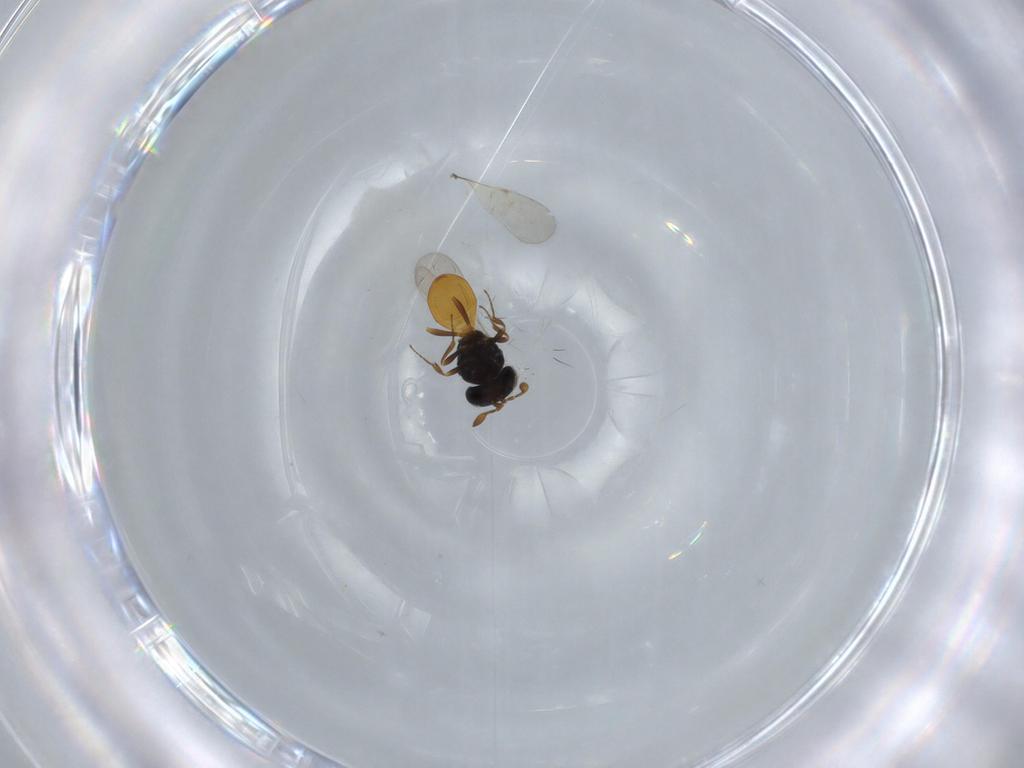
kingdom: Animalia
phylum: Arthropoda
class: Insecta
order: Hymenoptera
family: Scelionidae
